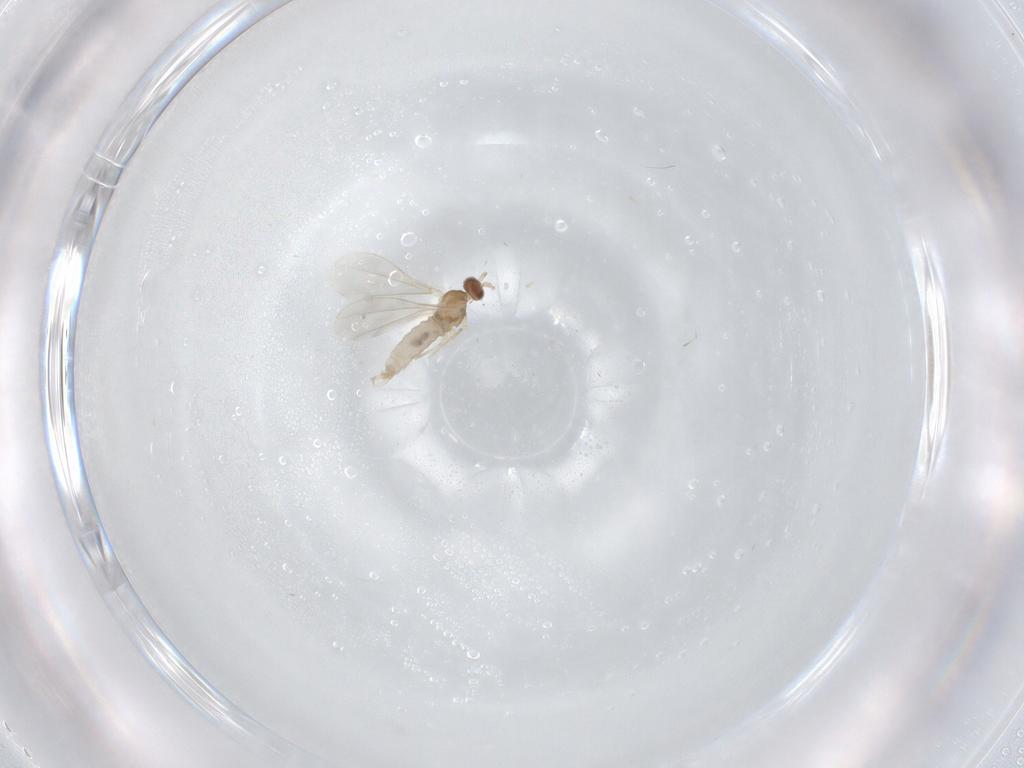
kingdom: Animalia
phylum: Arthropoda
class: Insecta
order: Diptera
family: Cecidomyiidae
